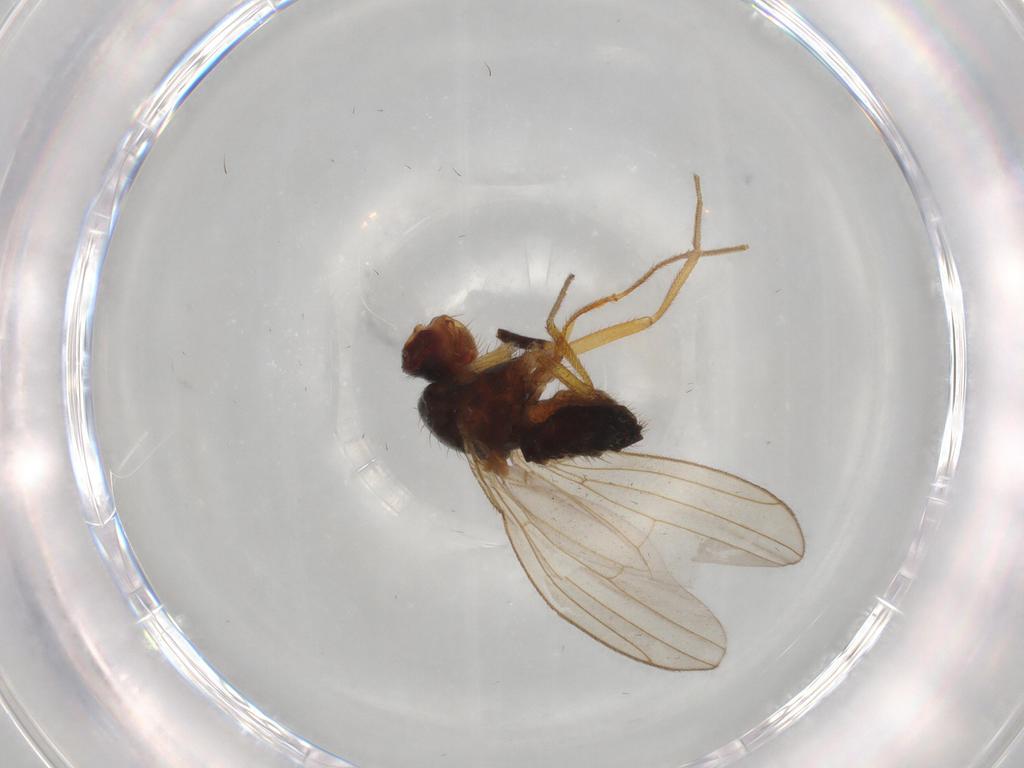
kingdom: Animalia
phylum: Arthropoda
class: Insecta
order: Diptera
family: Drosophilidae
